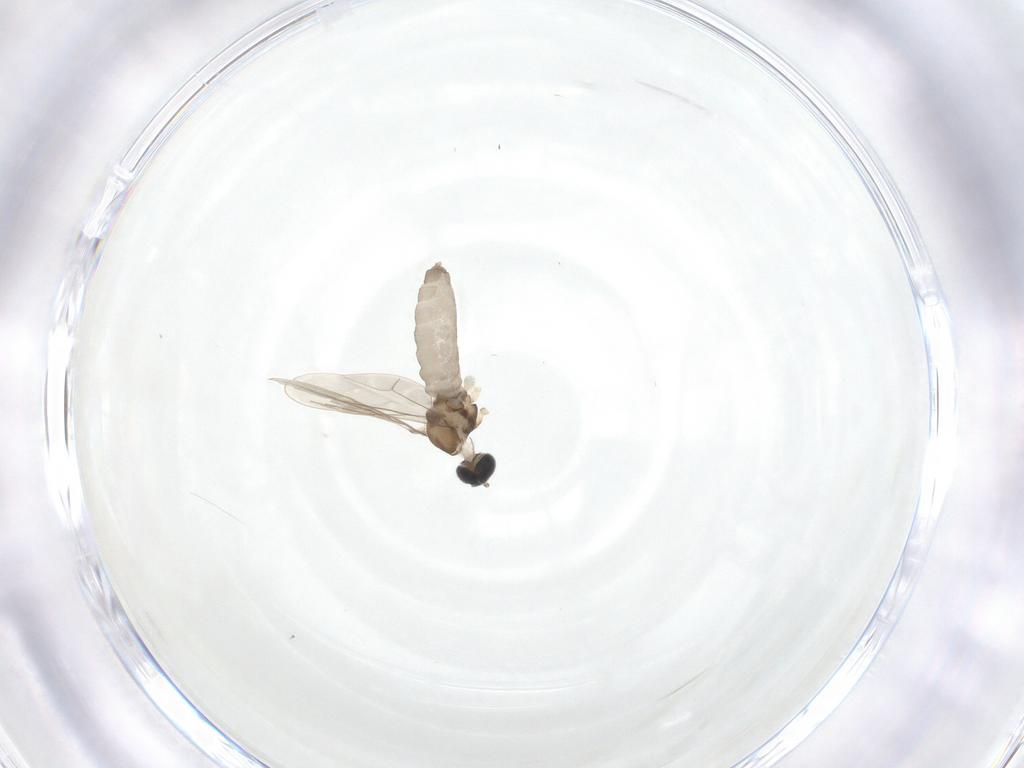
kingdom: Animalia
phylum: Arthropoda
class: Insecta
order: Diptera
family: Cecidomyiidae
